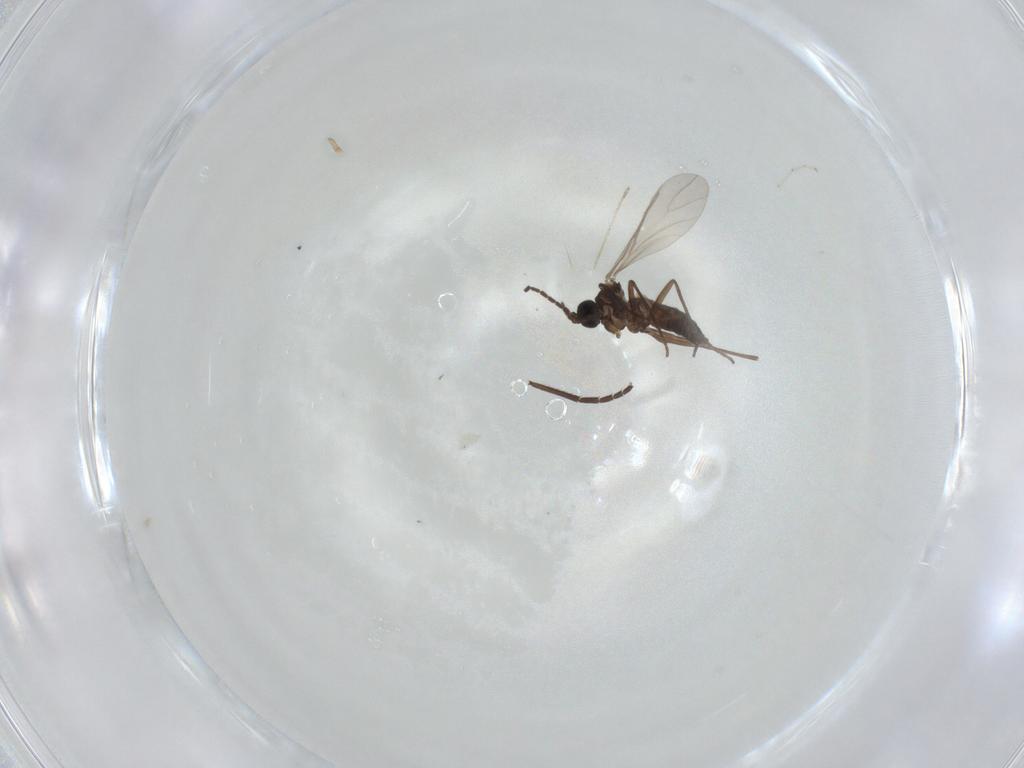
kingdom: Animalia
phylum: Arthropoda
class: Insecta
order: Diptera
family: Sciaridae
